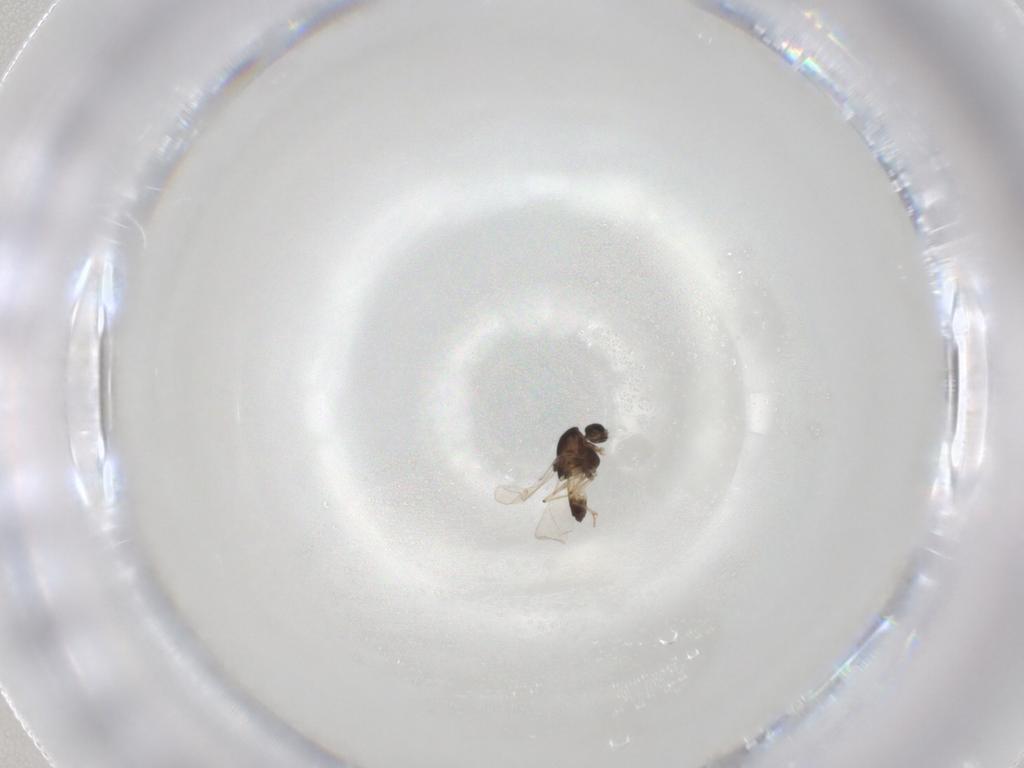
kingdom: Animalia
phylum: Arthropoda
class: Insecta
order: Diptera
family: Chironomidae
